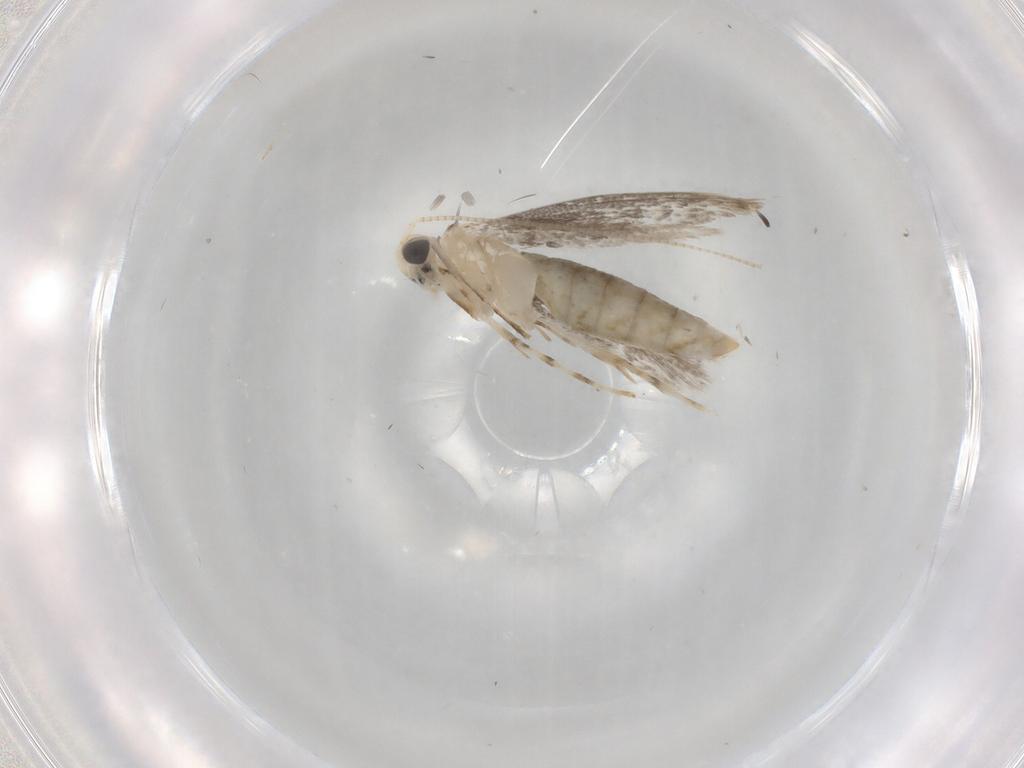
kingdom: Animalia
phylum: Arthropoda
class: Insecta
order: Lepidoptera
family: Gracillariidae
